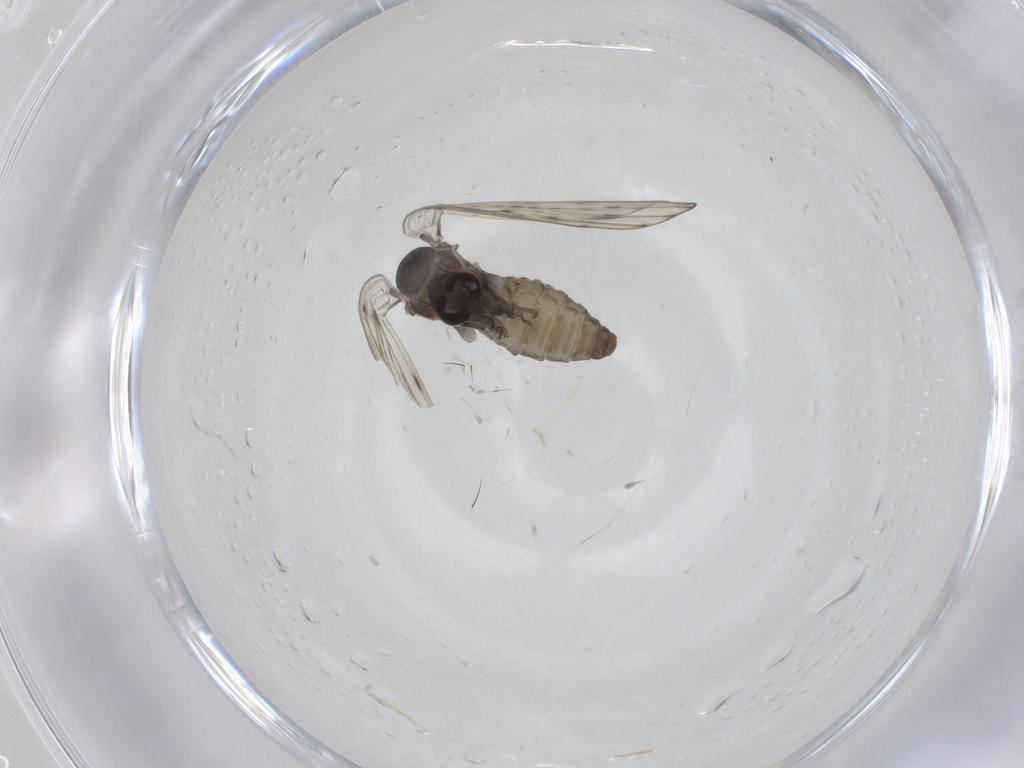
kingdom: Animalia
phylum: Arthropoda
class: Insecta
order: Diptera
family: Psychodidae
